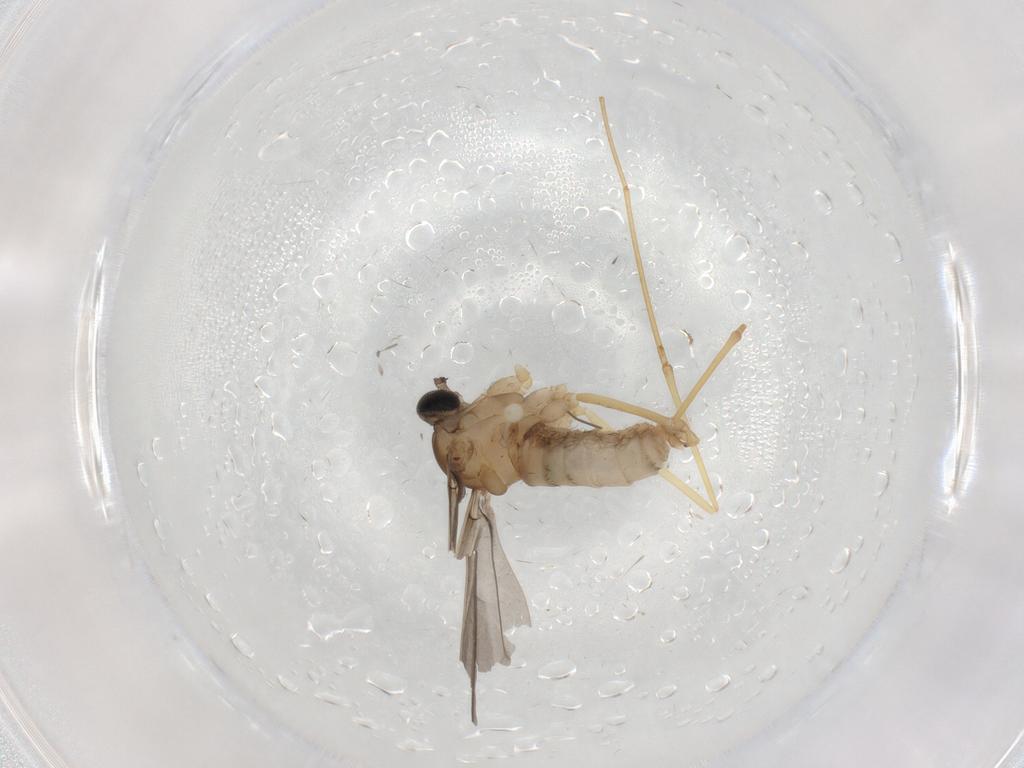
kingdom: Animalia
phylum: Arthropoda
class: Insecta
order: Diptera
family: Cecidomyiidae
